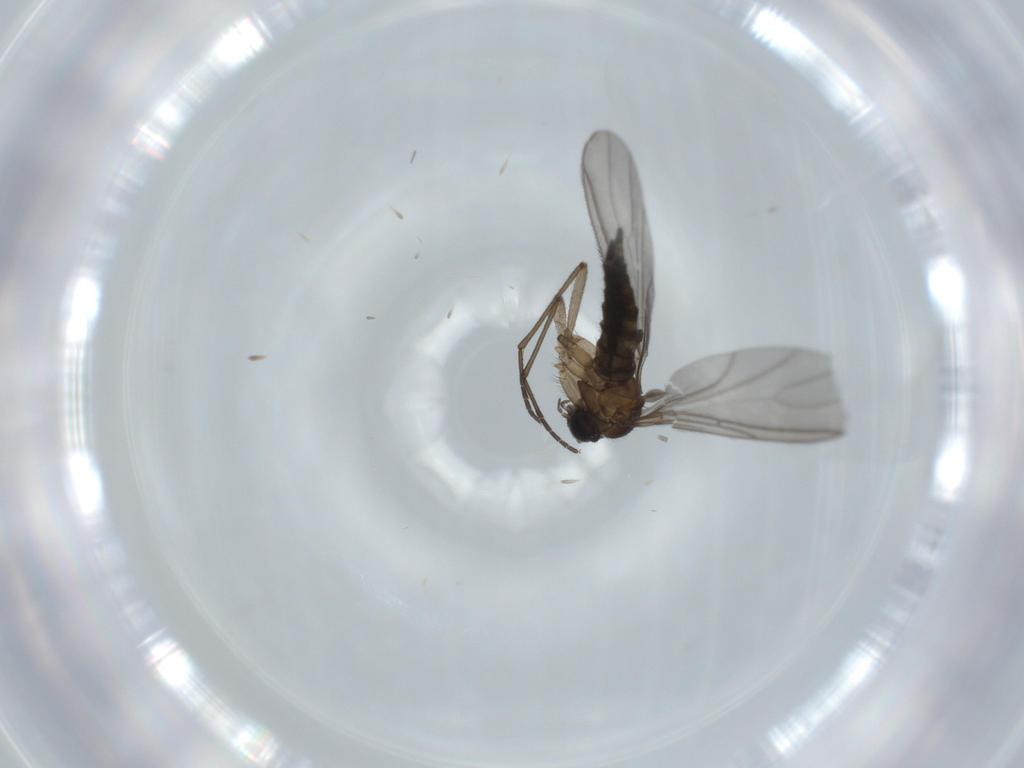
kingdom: Animalia
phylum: Arthropoda
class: Insecta
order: Diptera
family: Sciaridae
